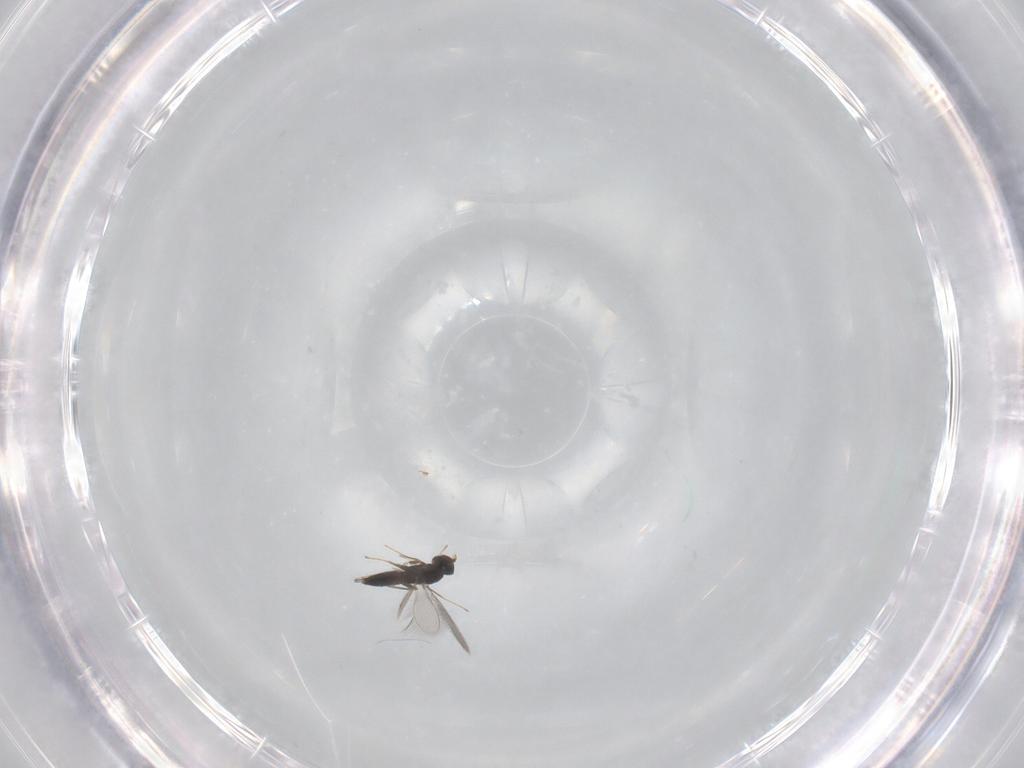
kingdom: Animalia
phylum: Arthropoda
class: Insecta
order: Hymenoptera
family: Mymaridae
